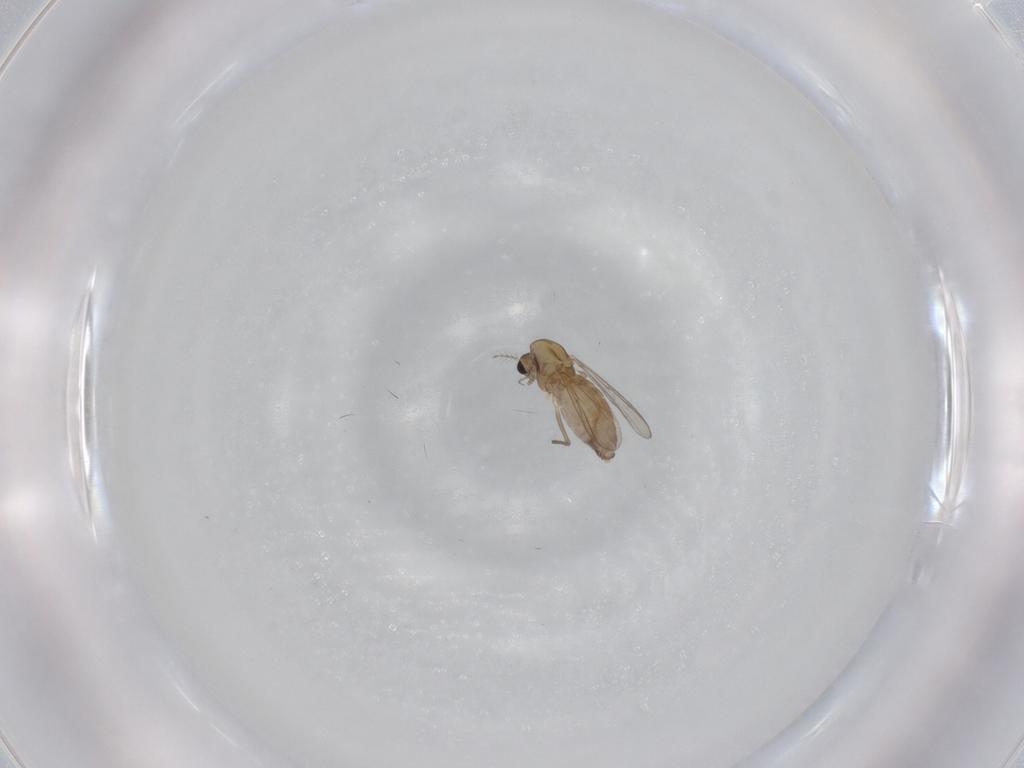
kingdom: Animalia
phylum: Arthropoda
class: Insecta
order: Diptera
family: Chironomidae
